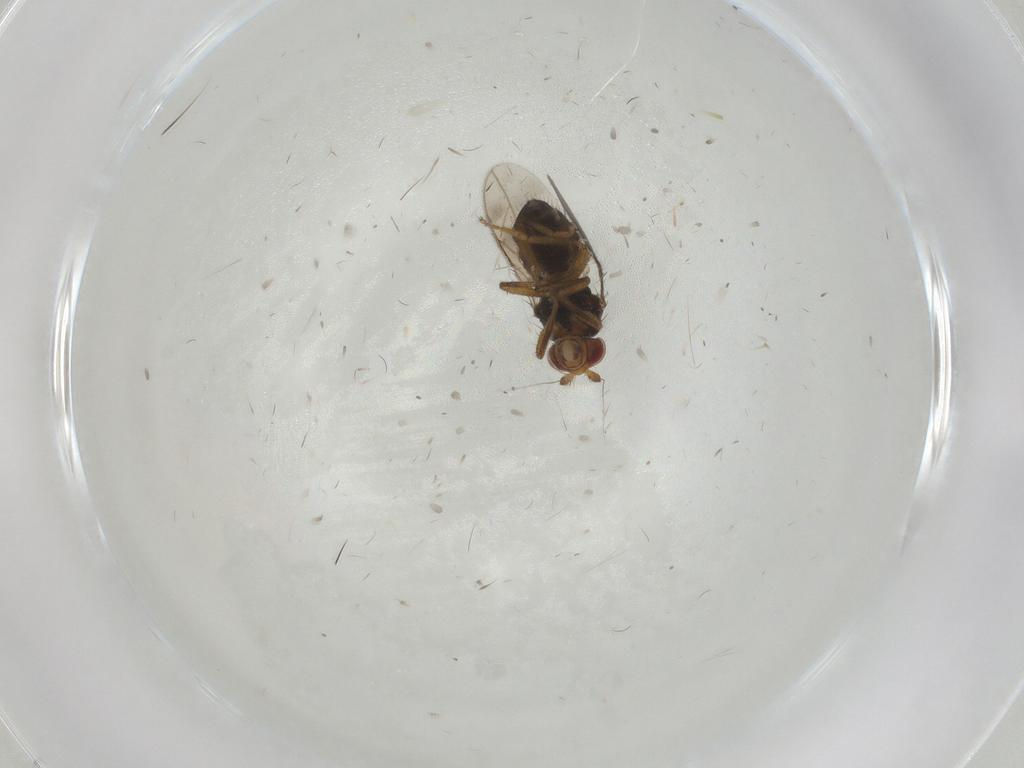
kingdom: Animalia
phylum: Arthropoda
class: Insecta
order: Diptera
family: Sphaeroceridae
